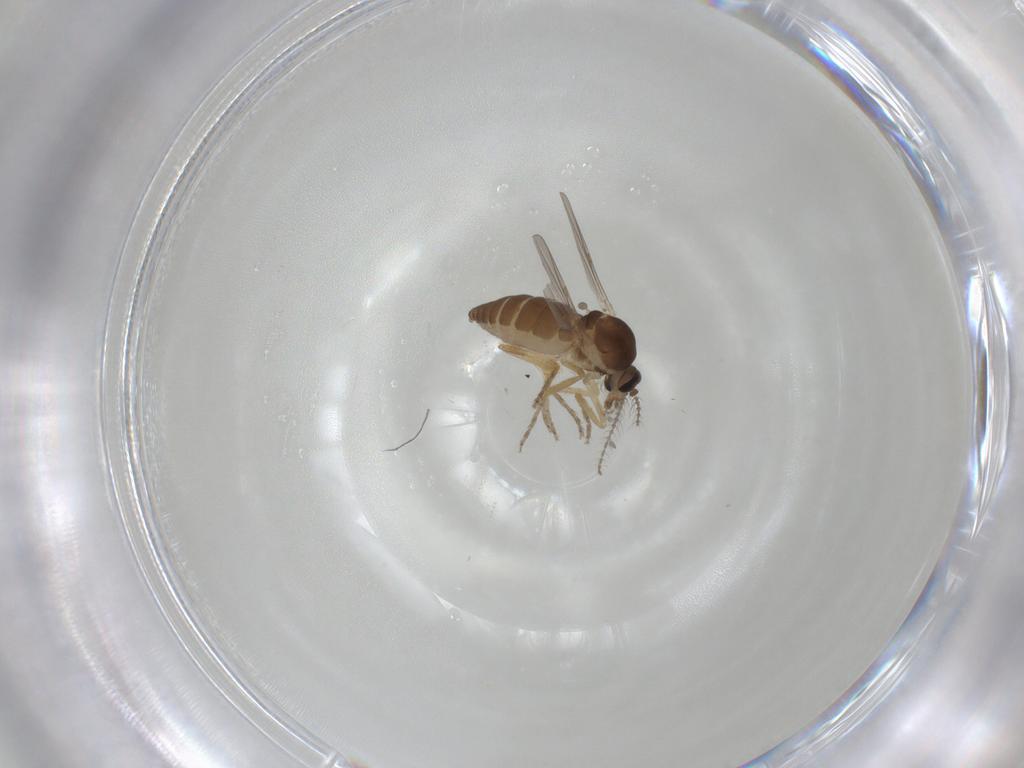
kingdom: Animalia
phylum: Arthropoda
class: Insecta
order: Diptera
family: Ceratopogonidae
